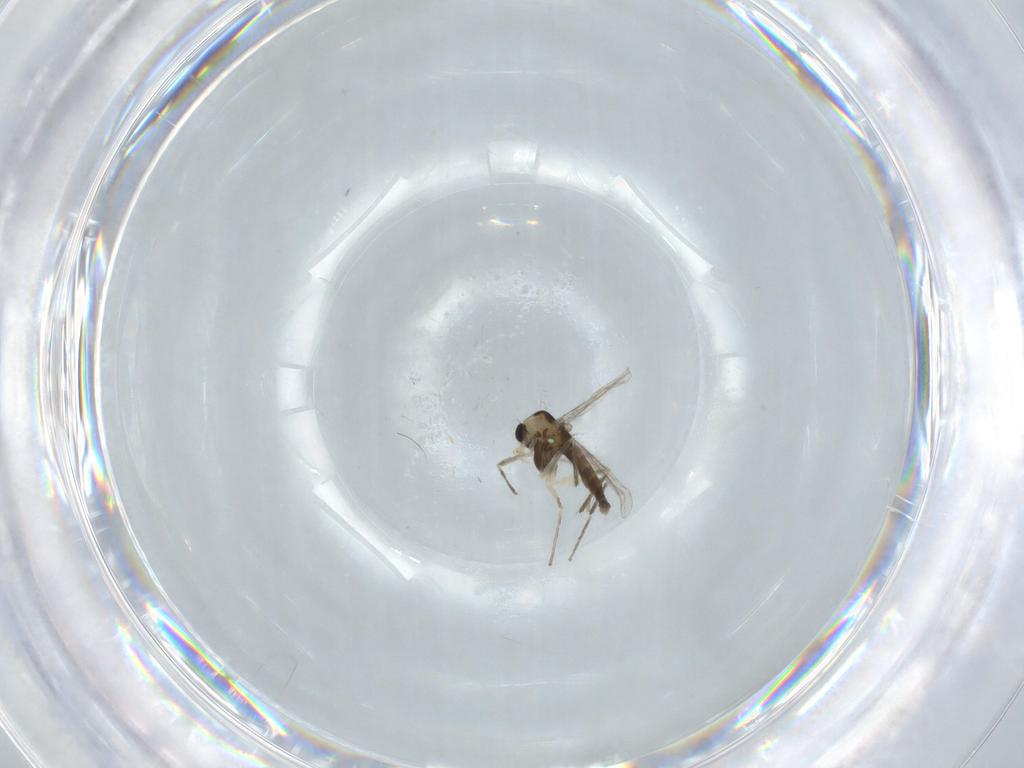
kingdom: Animalia
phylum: Arthropoda
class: Insecta
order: Diptera
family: Chironomidae
